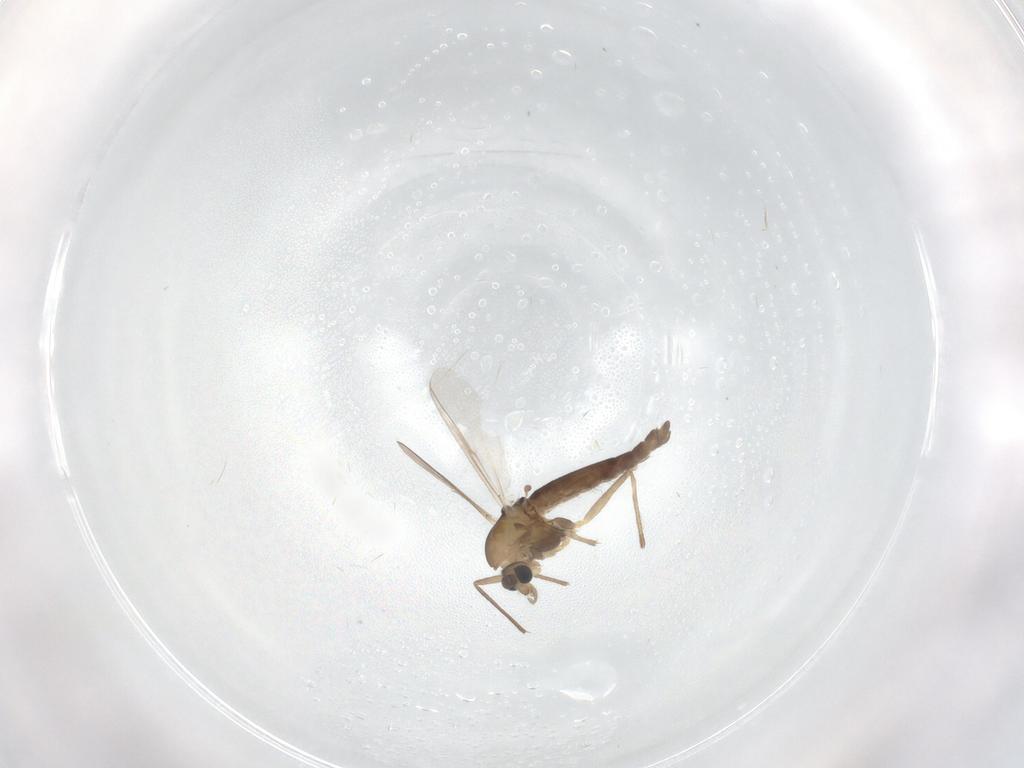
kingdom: Animalia
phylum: Arthropoda
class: Insecta
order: Diptera
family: Chironomidae
